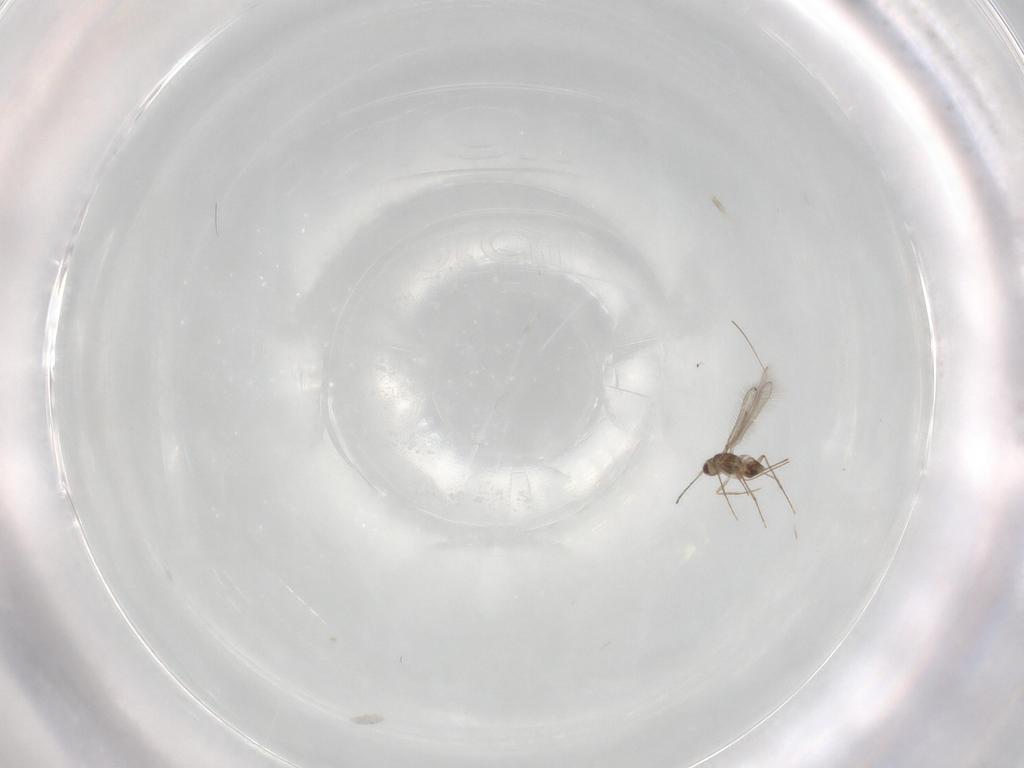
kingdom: Animalia
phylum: Arthropoda
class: Insecta
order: Hymenoptera
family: Mymaridae
